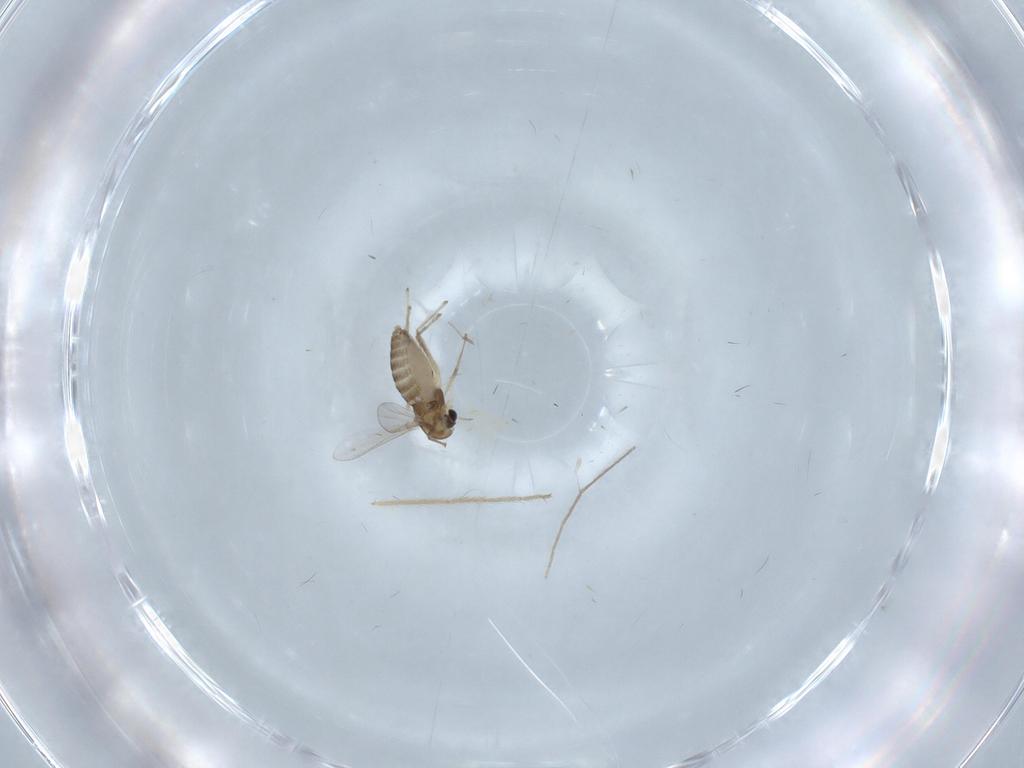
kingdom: Animalia
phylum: Arthropoda
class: Insecta
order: Diptera
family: Chironomidae
